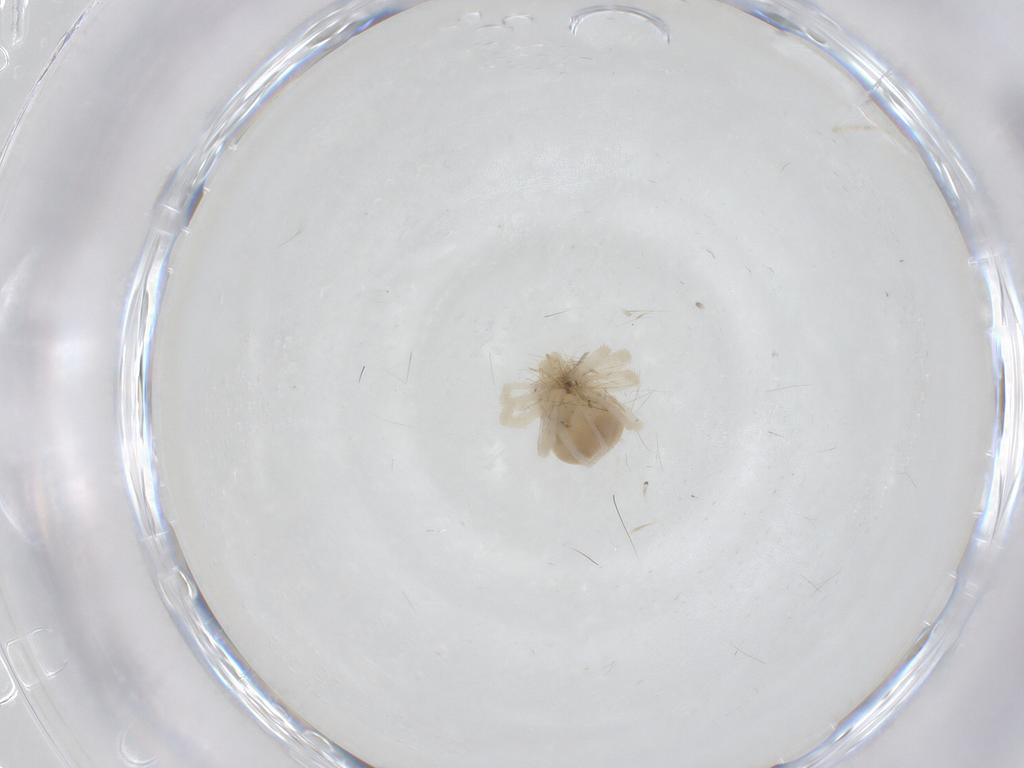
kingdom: Animalia
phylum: Arthropoda
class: Arachnida
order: Trombidiformes
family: Anystidae
